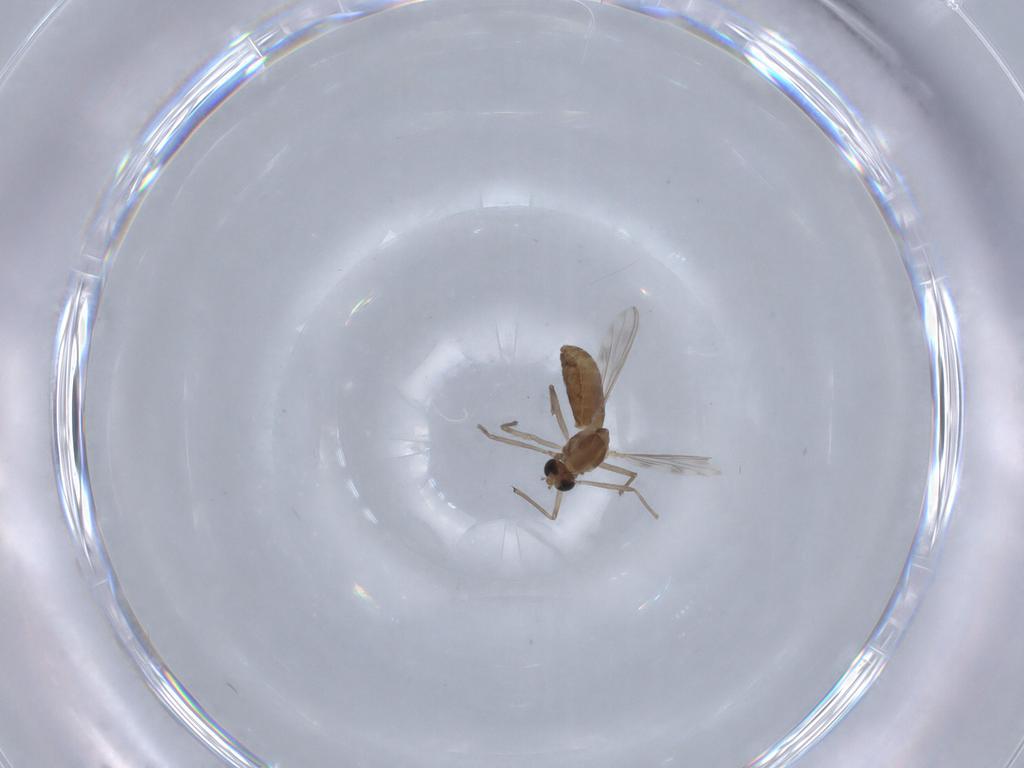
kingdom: Animalia
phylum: Arthropoda
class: Insecta
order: Diptera
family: Chironomidae
